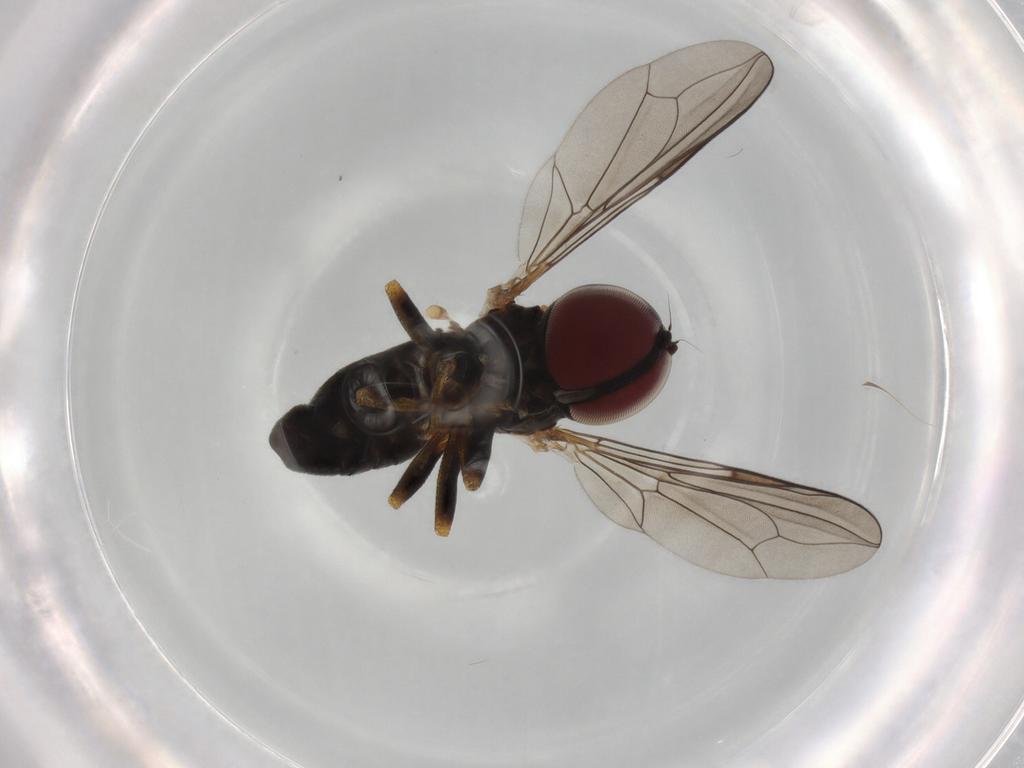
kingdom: Animalia
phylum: Arthropoda
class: Insecta
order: Diptera
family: Pipunculidae
